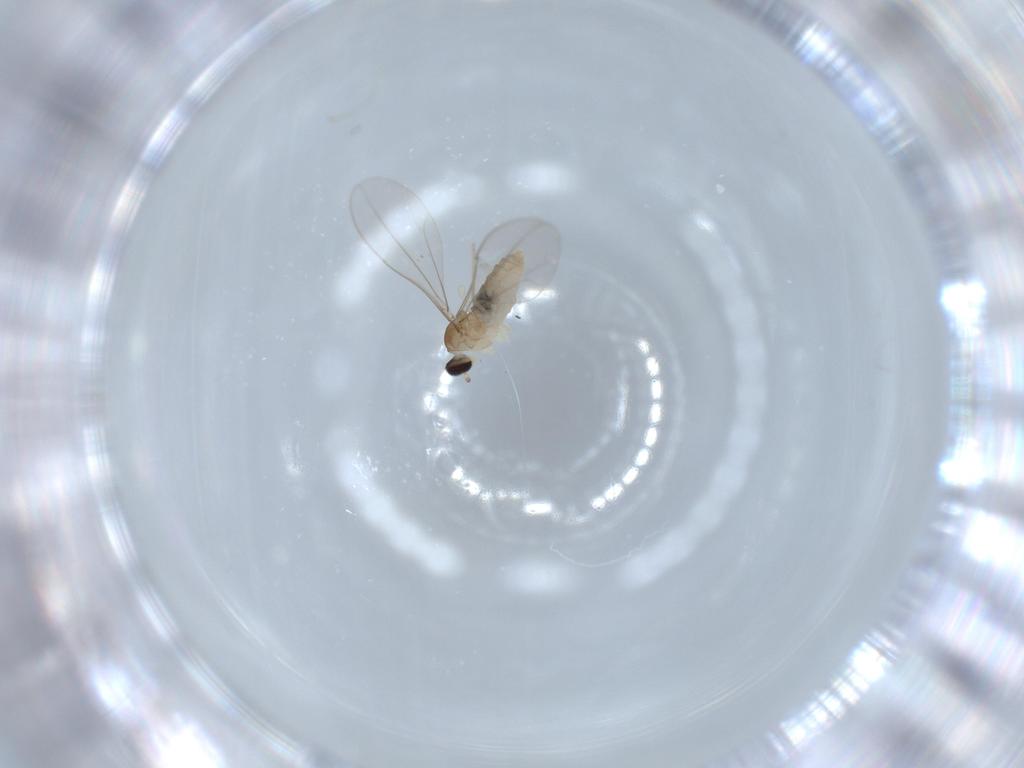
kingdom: Animalia
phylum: Arthropoda
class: Insecta
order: Diptera
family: Cecidomyiidae
